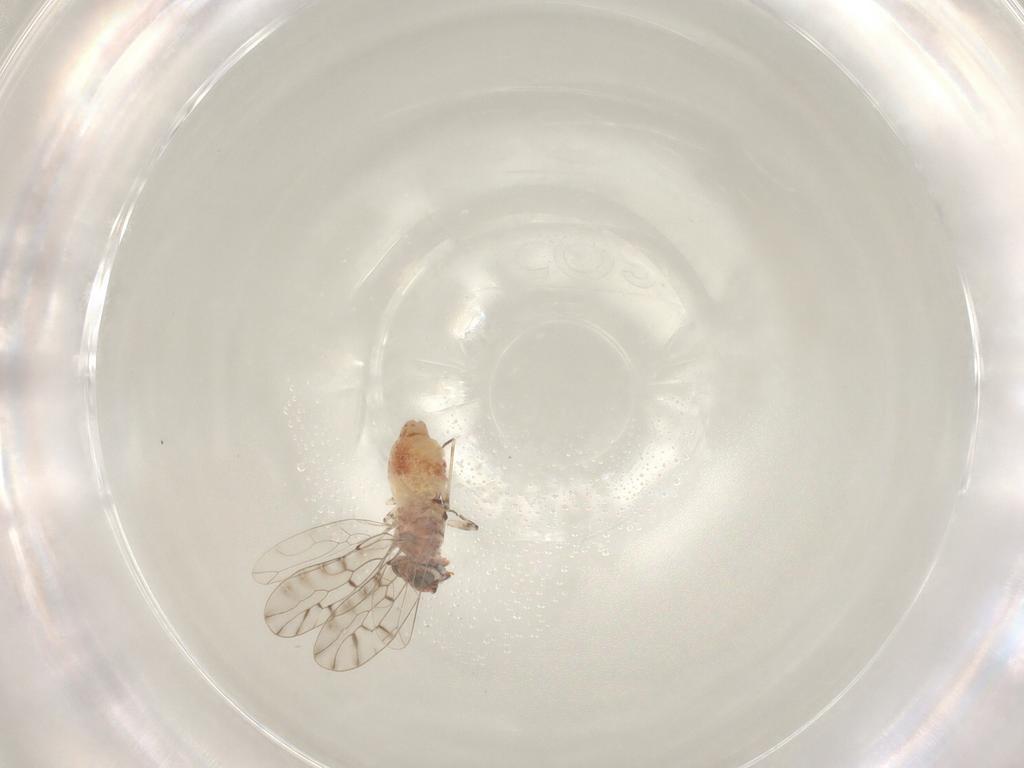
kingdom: Animalia
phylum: Arthropoda
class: Insecta
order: Psocodea
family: Psoquillidae
